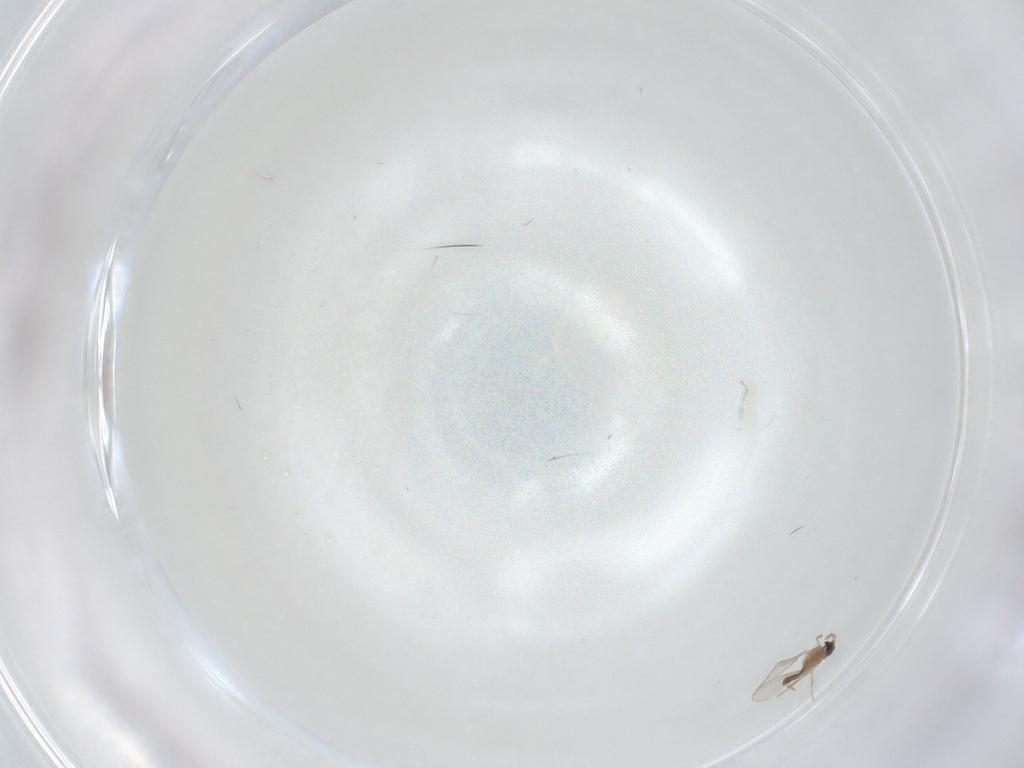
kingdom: Animalia
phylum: Arthropoda
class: Insecta
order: Diptera
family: Cecidomyiidae
